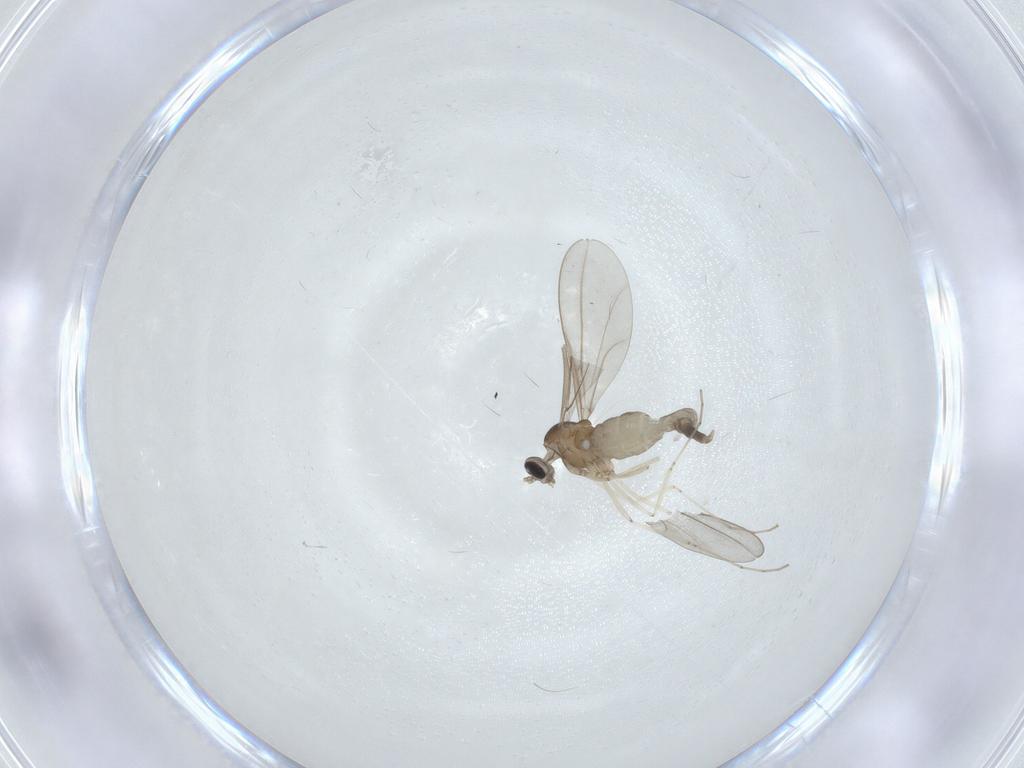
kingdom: Animalia
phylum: Arthropoda
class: Insecta
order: Diptera
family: Cecidomyiidae
